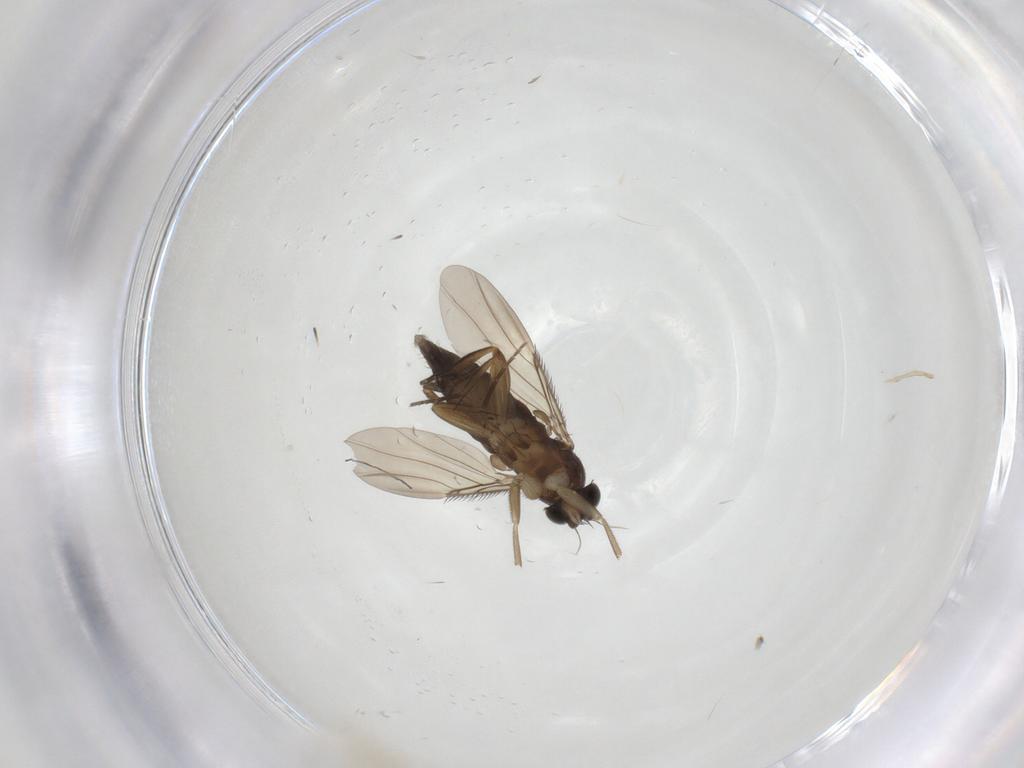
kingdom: Animalia
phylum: Arthropoda
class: Insecta
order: Diptera
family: Phoridae
